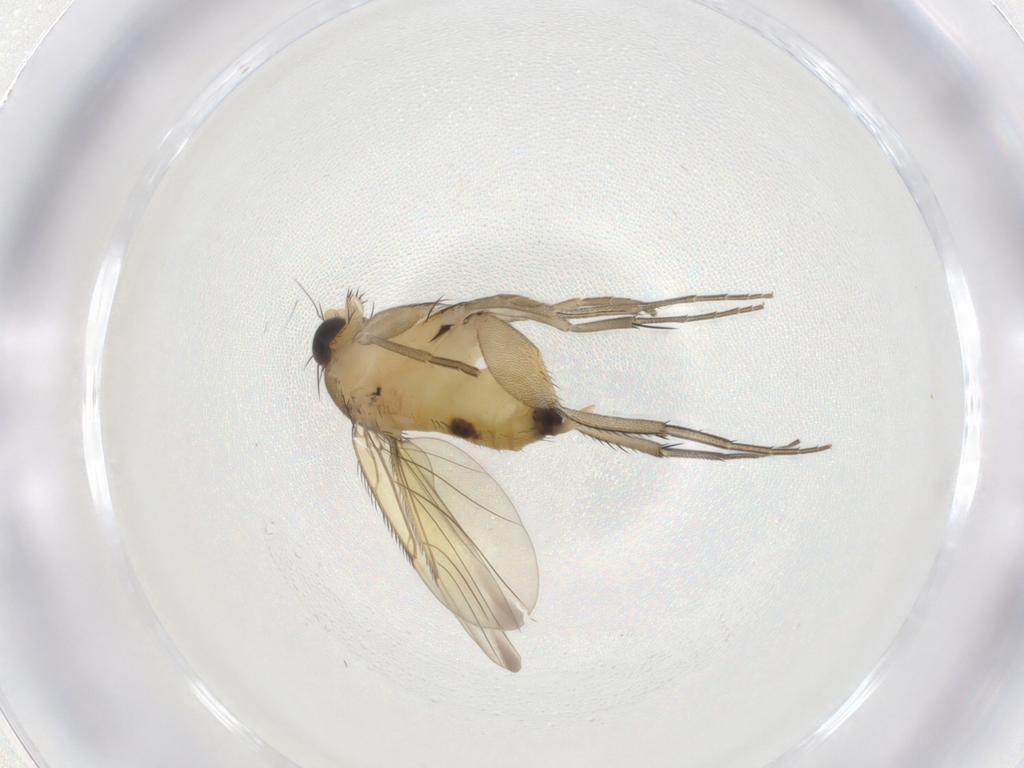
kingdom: Animalia
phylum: Arthropoda
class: Insecta
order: Diptera
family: Phoridae
